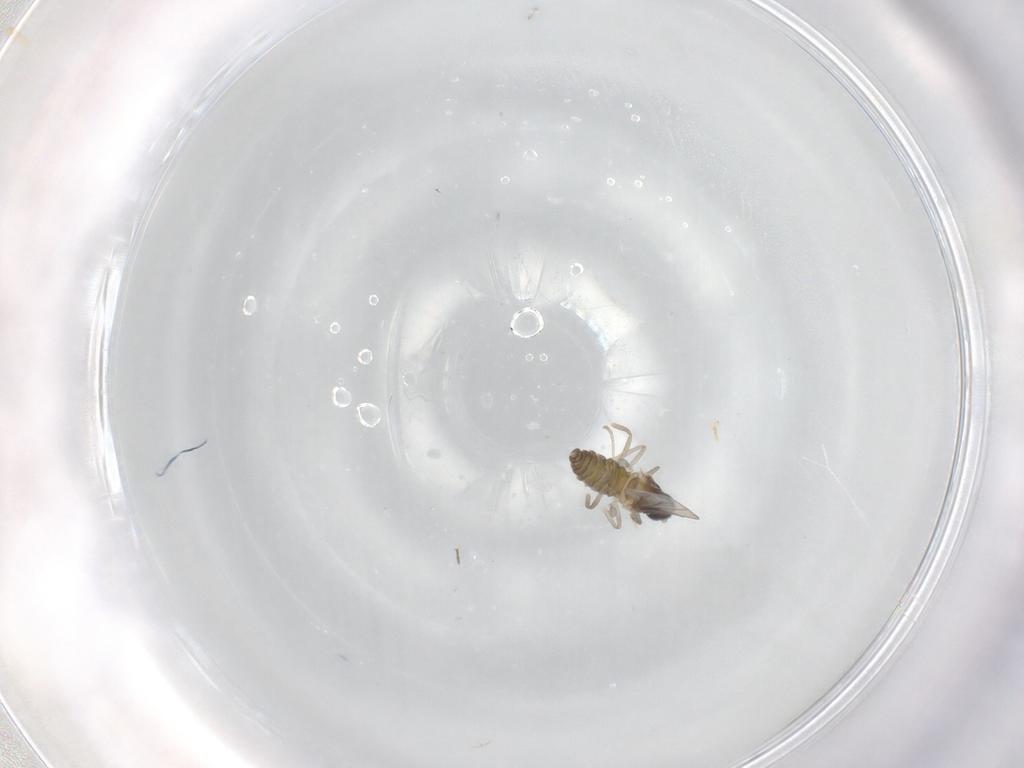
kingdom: Animalia
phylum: Arthropoda
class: Insecta
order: Diptera
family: Cecidomyiidae
